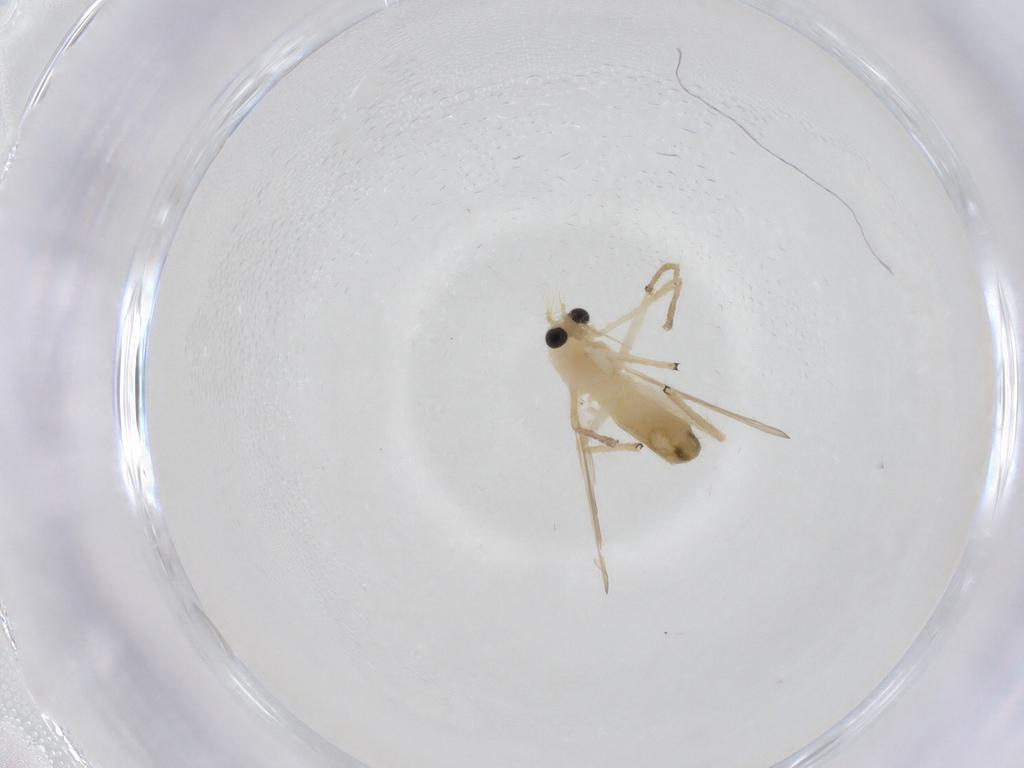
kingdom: Animalia
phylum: Arthropoda
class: Insecta
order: Diptera
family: Chironomidae
